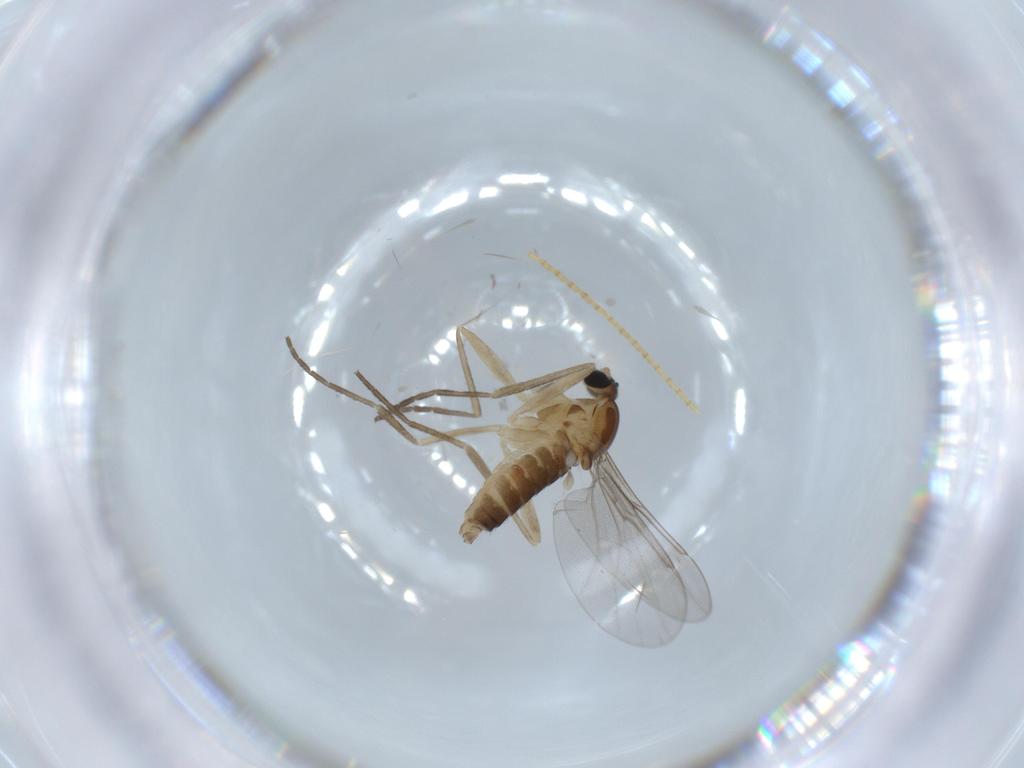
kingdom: Animalia
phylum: Arthropoda
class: Insecta
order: Diptera
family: Cecidomyiidae
